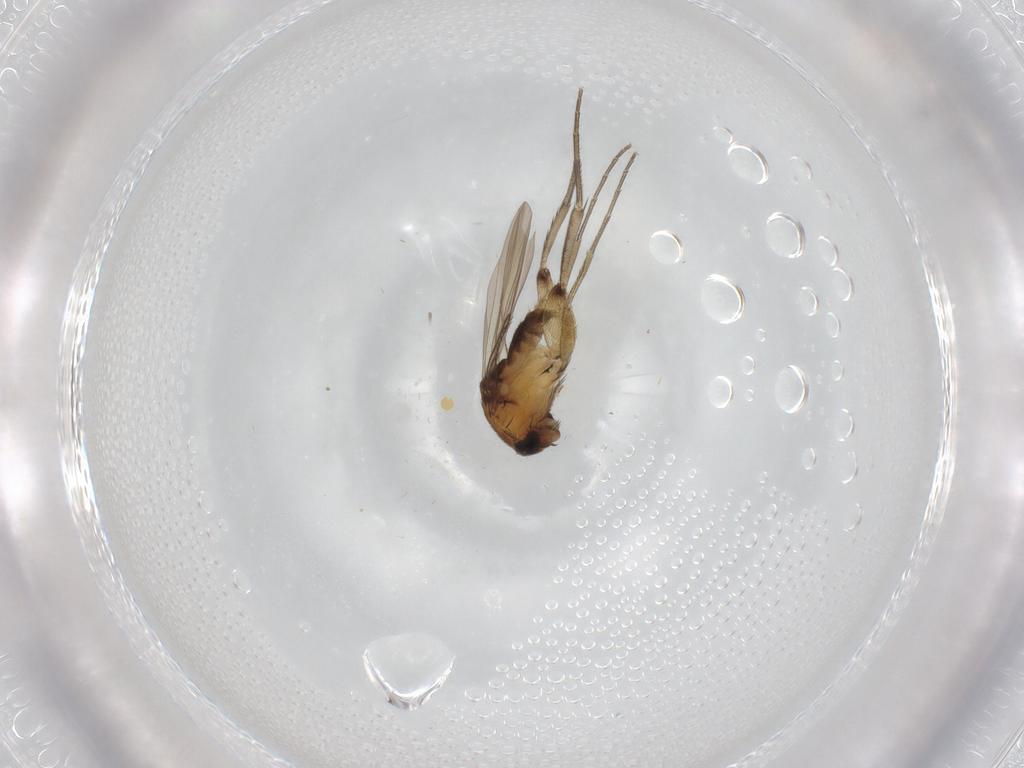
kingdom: Animalia
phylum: Arthropoda
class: Insecta
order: Diptera
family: Phoridae
